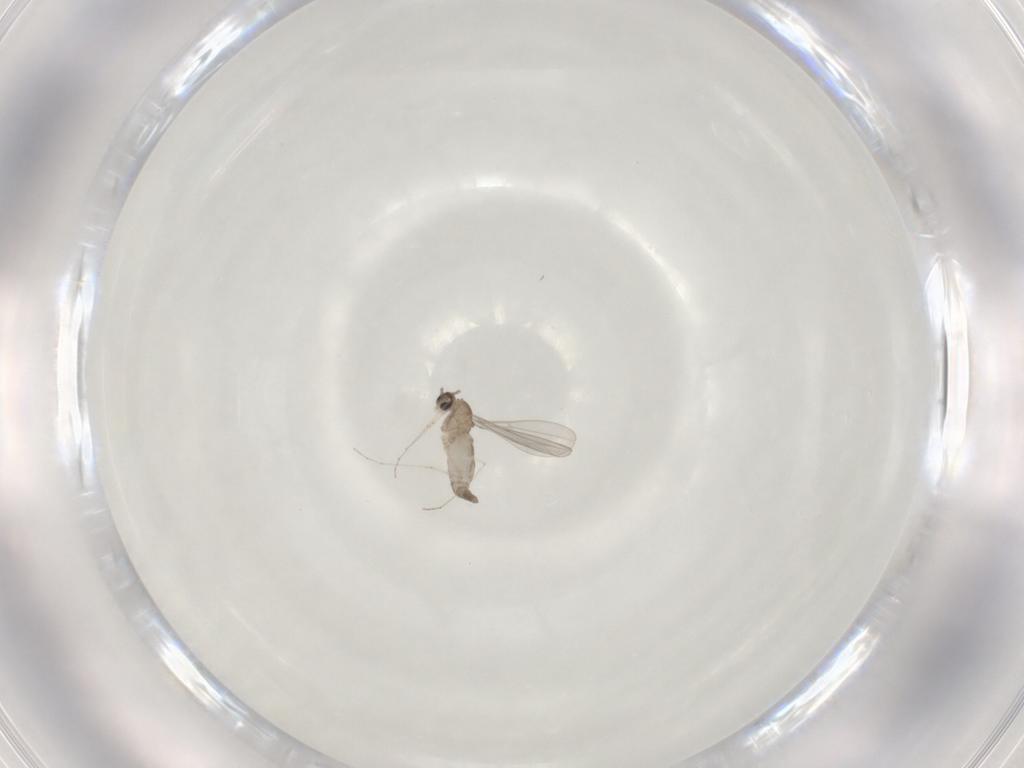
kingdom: Animalia
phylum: Arthropoda
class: Insecta
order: Diptera
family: Cecidomyiidae
